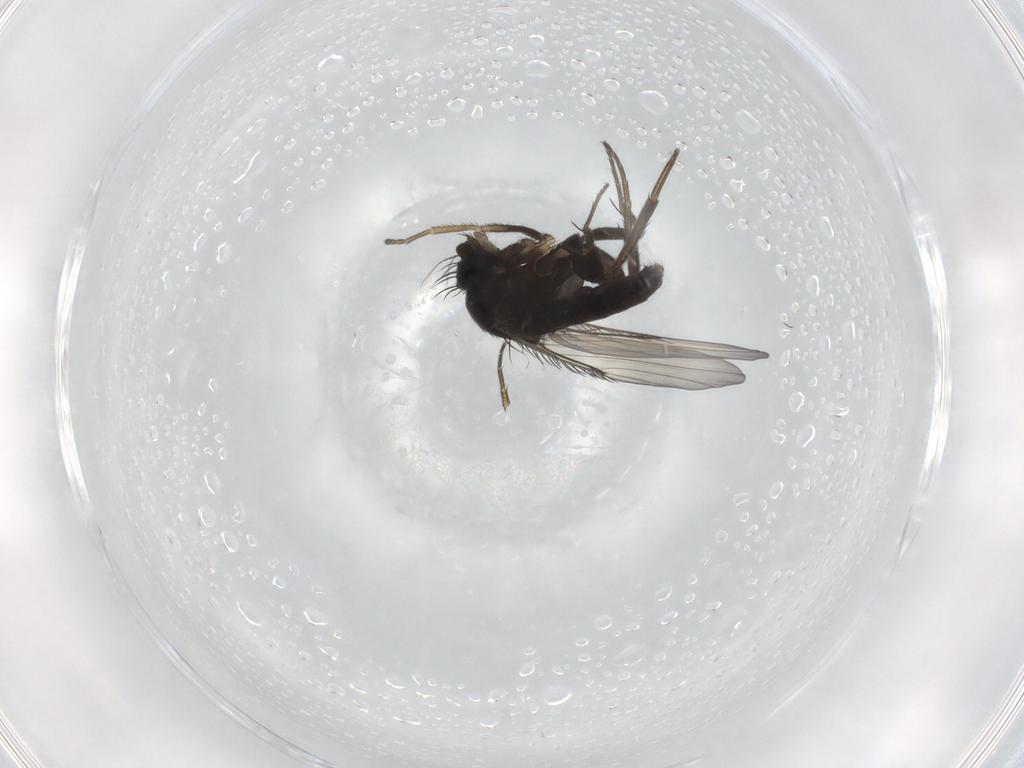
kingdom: Animalia
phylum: Arthropoda
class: Insecta
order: Diptera
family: Phoridae
